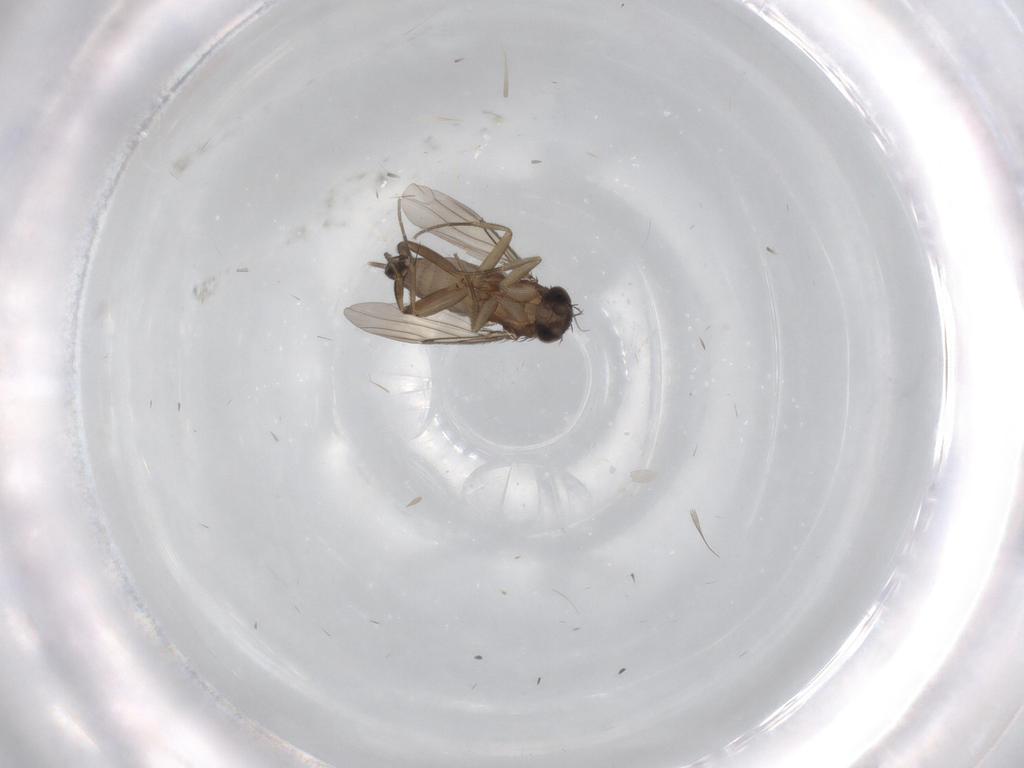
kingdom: Animalia
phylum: Arthropoda
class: Insecta
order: Diptera
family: Phoridae
